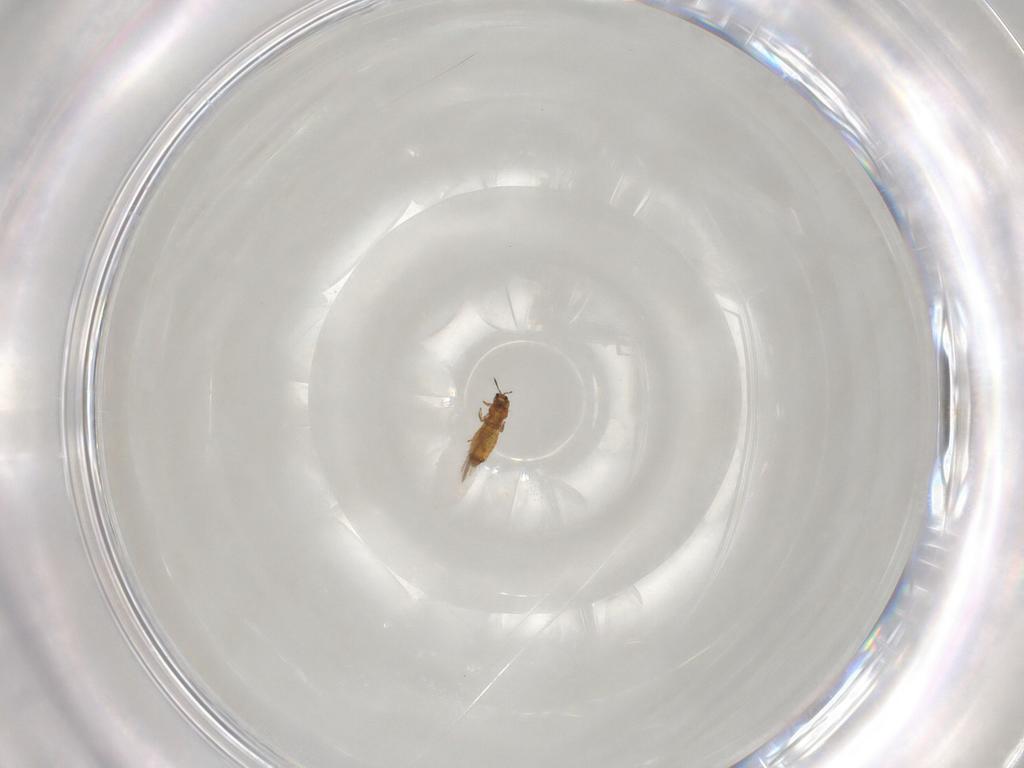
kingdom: Animalia
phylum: Arthropoda
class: Insecta
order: Thysanoptera
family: Thripidae
